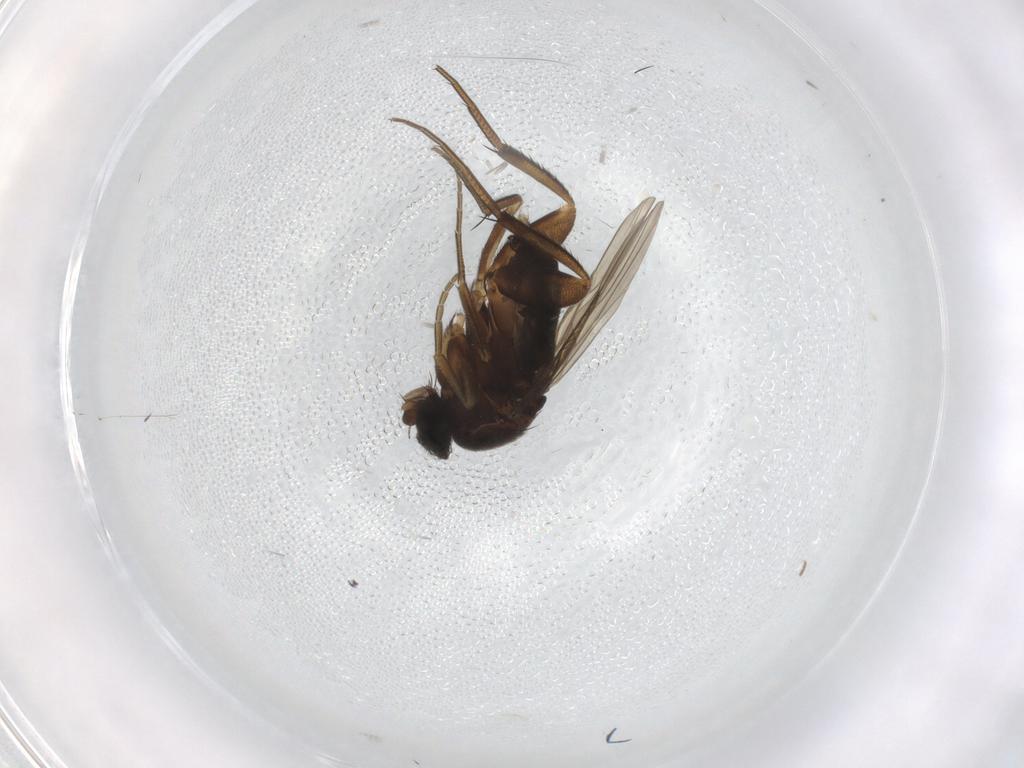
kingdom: Animalia
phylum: Arthropoda
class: Insecta
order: Diptera
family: Phoridae
